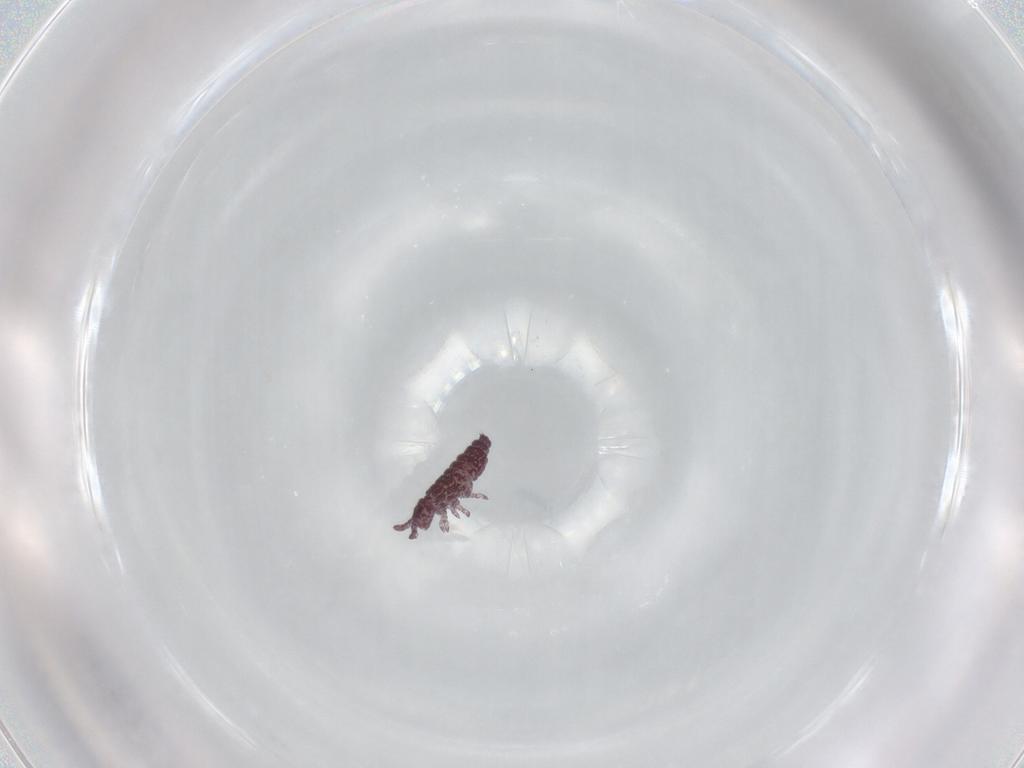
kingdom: Animalia
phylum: Arthropoda
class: Collembola
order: Poduromorpha
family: Hypogastruridae
